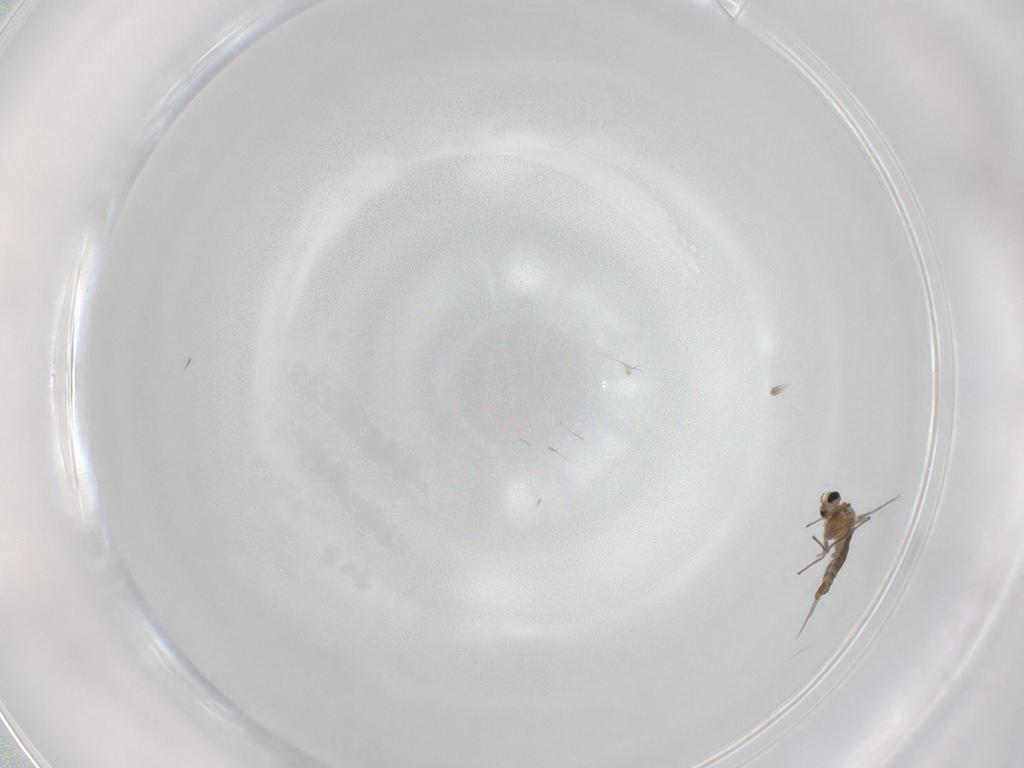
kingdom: Animalia
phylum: Arthropoda
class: Insecta
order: Diptera
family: Chironomidae
